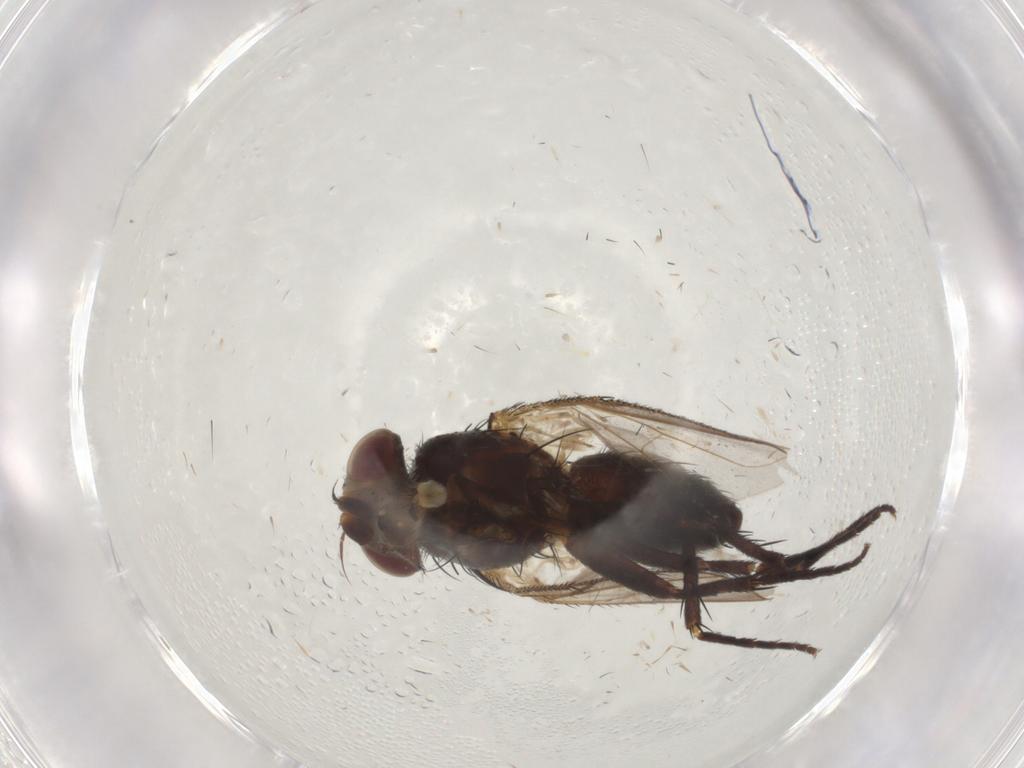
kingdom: Animalia
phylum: Arthropoda
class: Insecta
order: Diptera
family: Tachinidae
